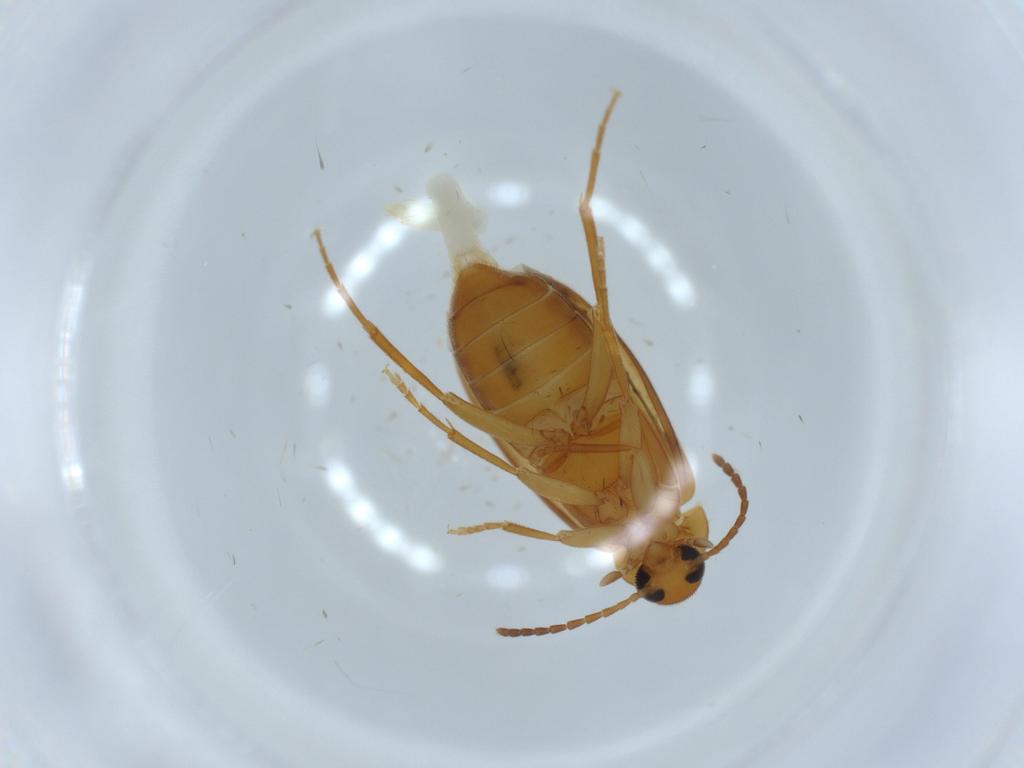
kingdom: Animalia
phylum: Arthropoda
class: Insecta
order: Coleoptera
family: Scraptiidae
